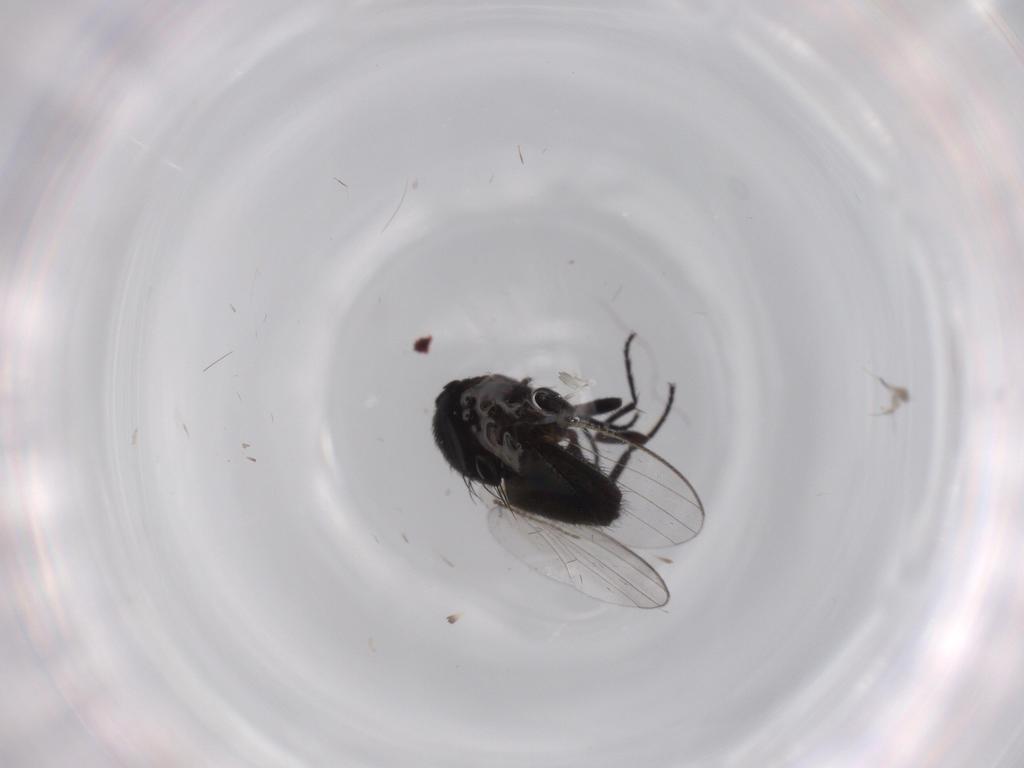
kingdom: Animalia
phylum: Arthropoda
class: Insecta
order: Diptera
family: Milichiidae
